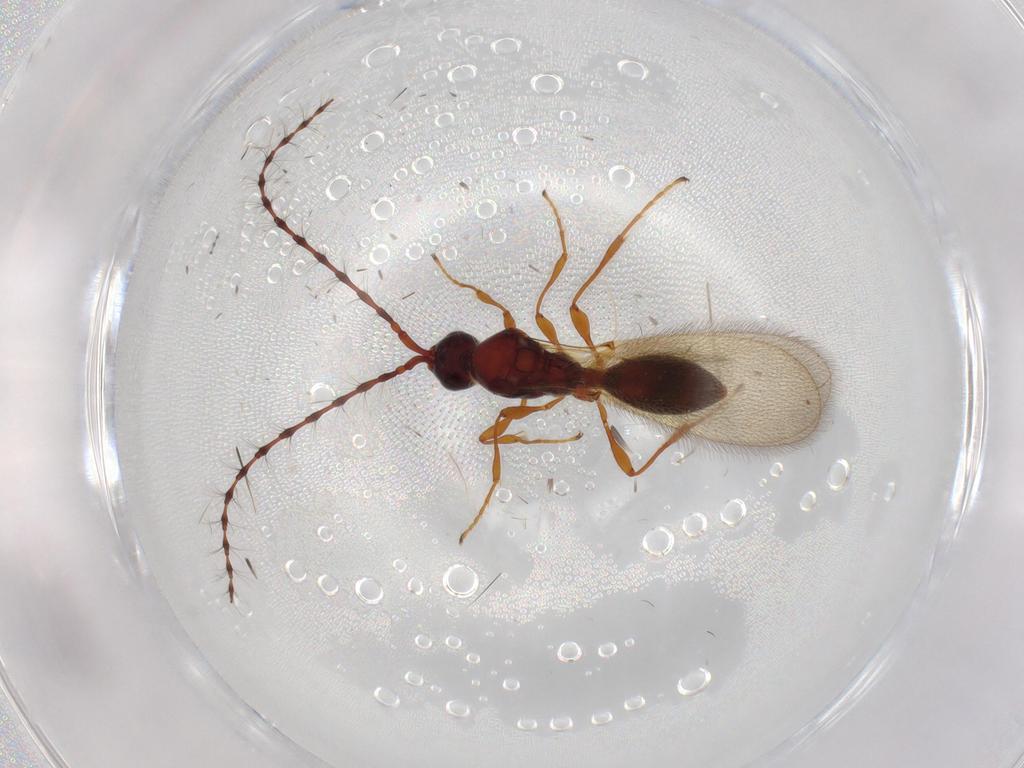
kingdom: Animalia
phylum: Arthropoda
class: Insecta
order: Hymenoptera
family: Diapriidae
